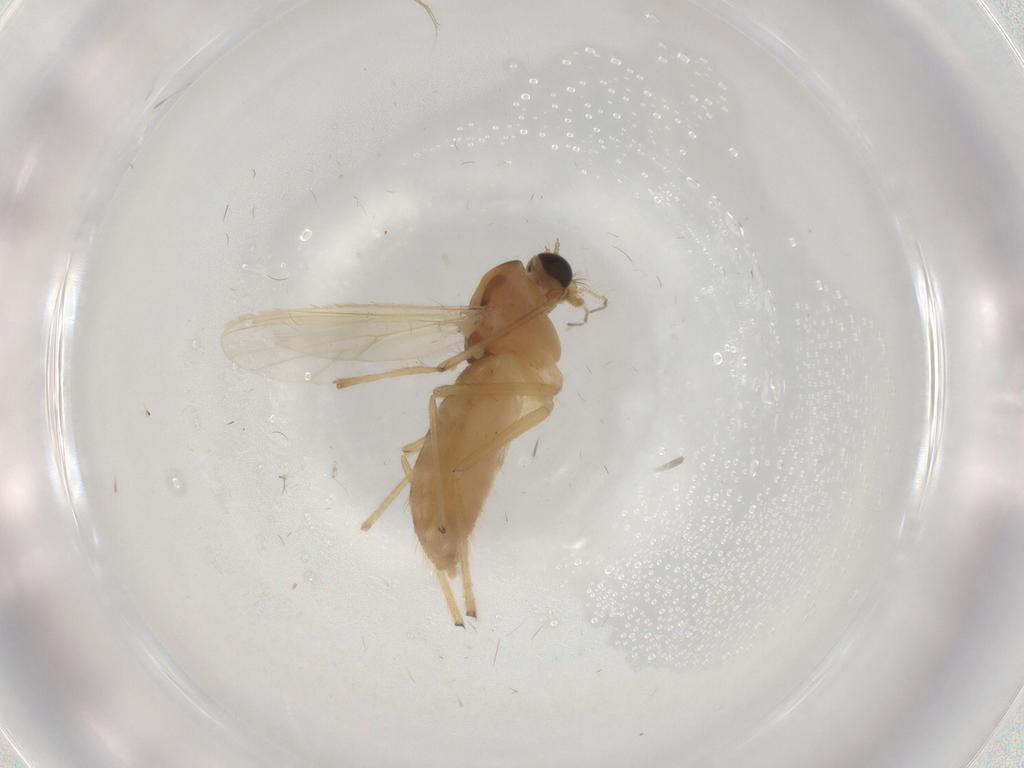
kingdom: Animalia
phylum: Arthropoda
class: Insecta
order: Diptera
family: Chironomidae
